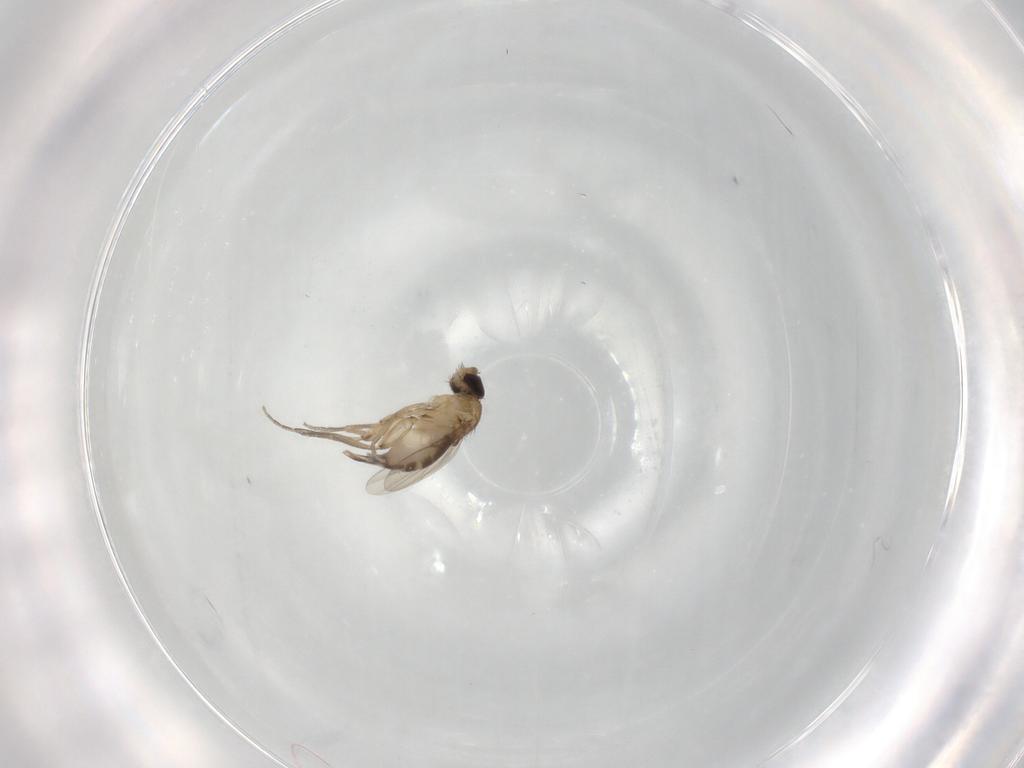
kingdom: Animalia
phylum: Arthropoda
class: Insecta
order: Diptera
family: Phoridae
